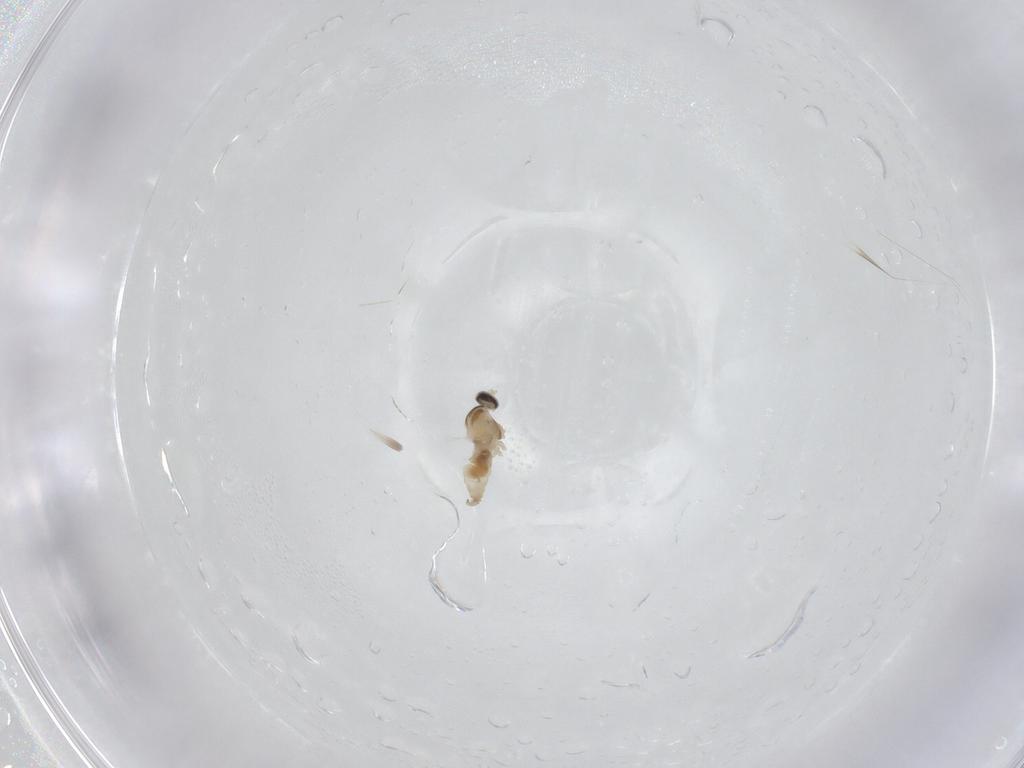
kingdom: Animalia
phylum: Arthropoda
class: Insecta
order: Diptera
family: Cecidomyiidae
